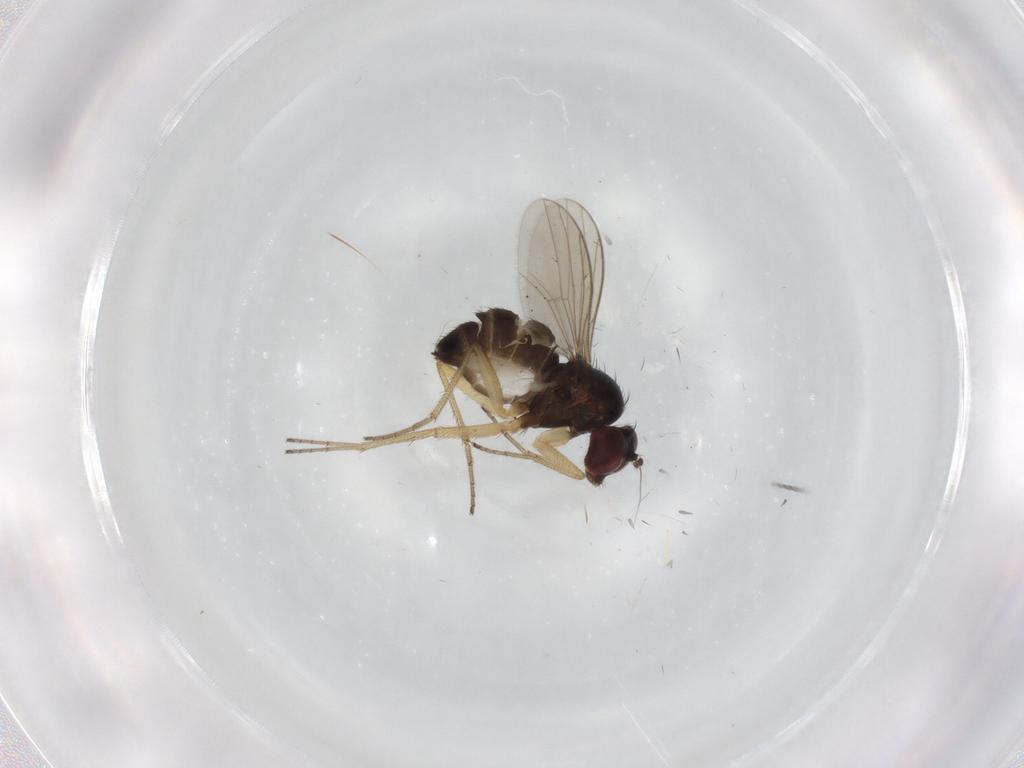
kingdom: Animalia
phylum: Arthropoda
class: Insecta
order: Diptera
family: Dolichopodidae
